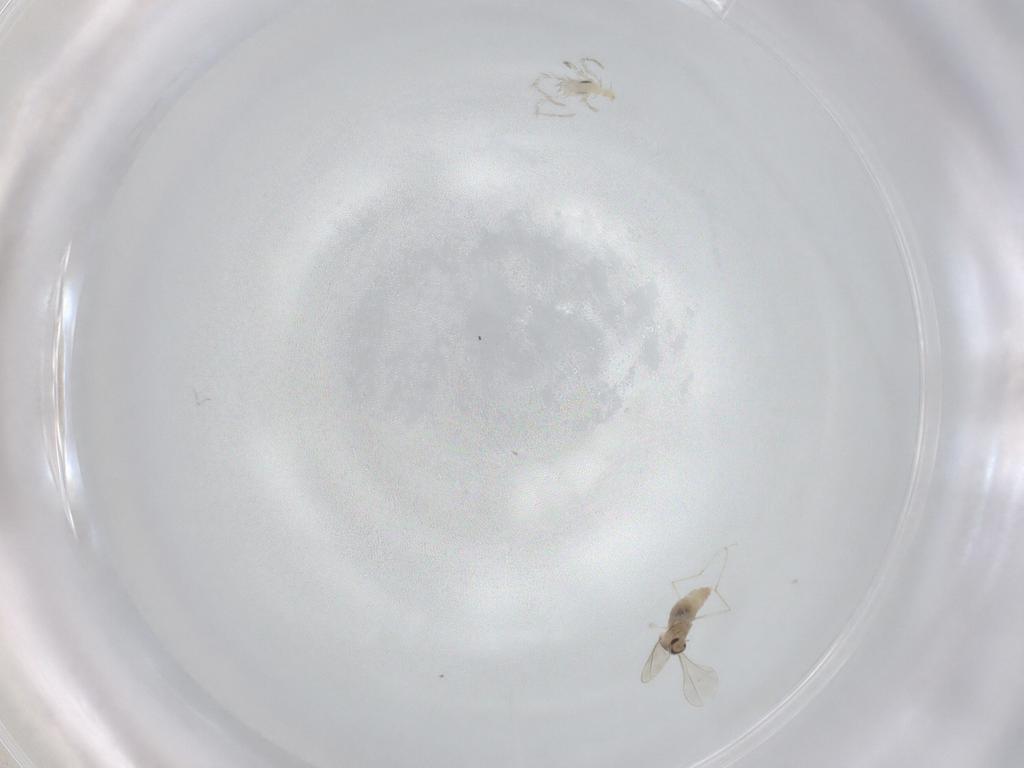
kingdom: Animalia
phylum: Arthropoda
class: Insecta
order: Diptera
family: Cecidomyiidae
